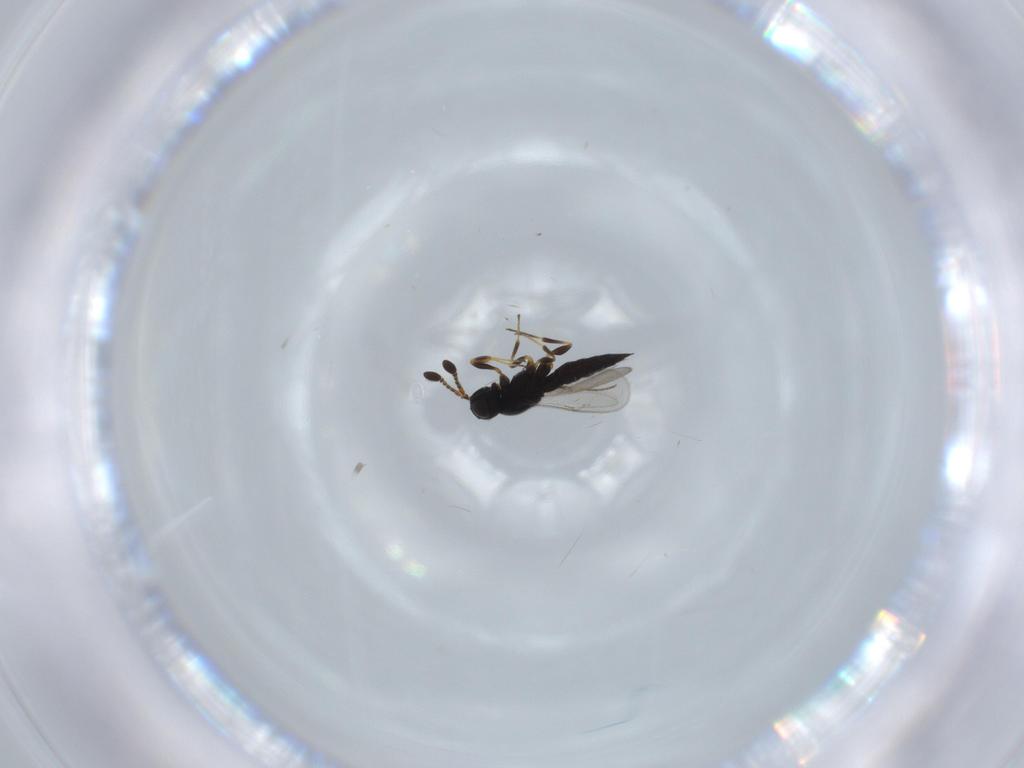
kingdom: Animalia
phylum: Arthropoda
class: Insecta
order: Hymenoptera
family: Scelionidae
